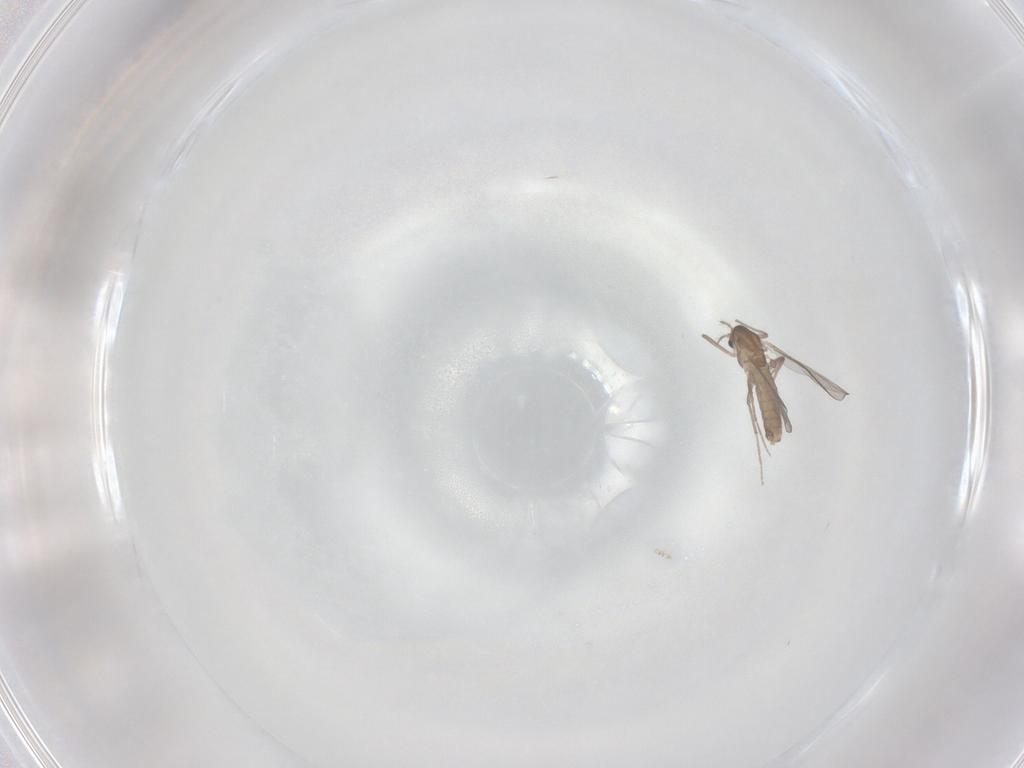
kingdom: Animalia
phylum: Arthropoda
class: Insecta
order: Diptera
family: Chironomidae
